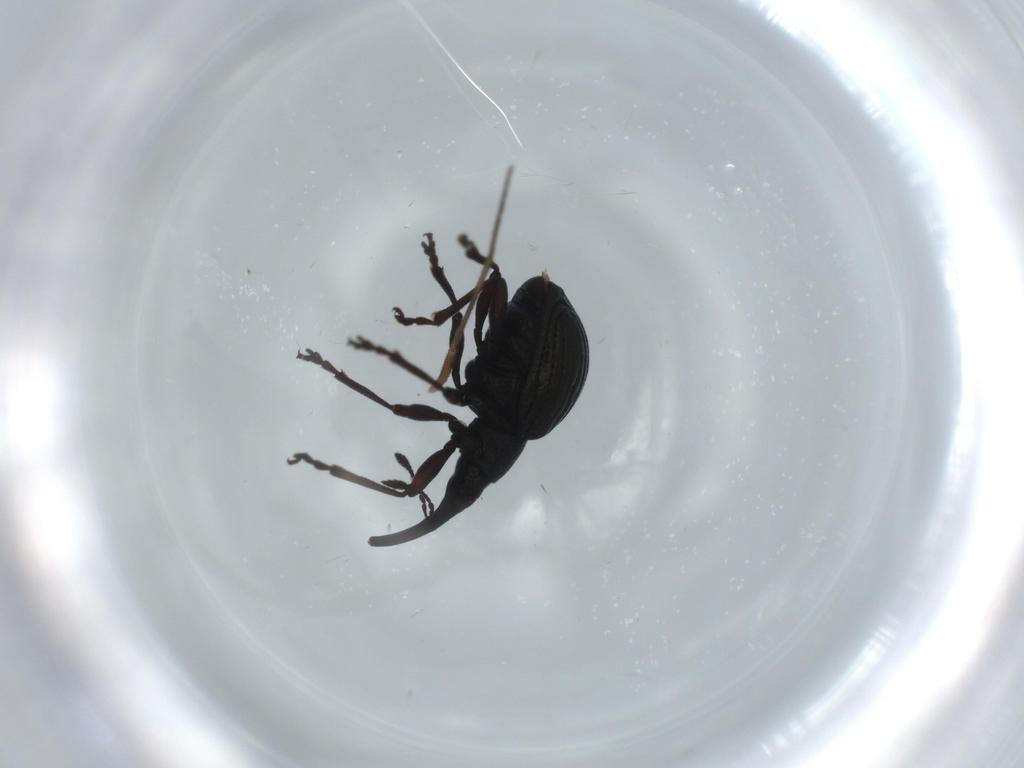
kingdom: Animalia
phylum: Arthropoda
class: Insecta
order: Coleoptera
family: Brentidae
